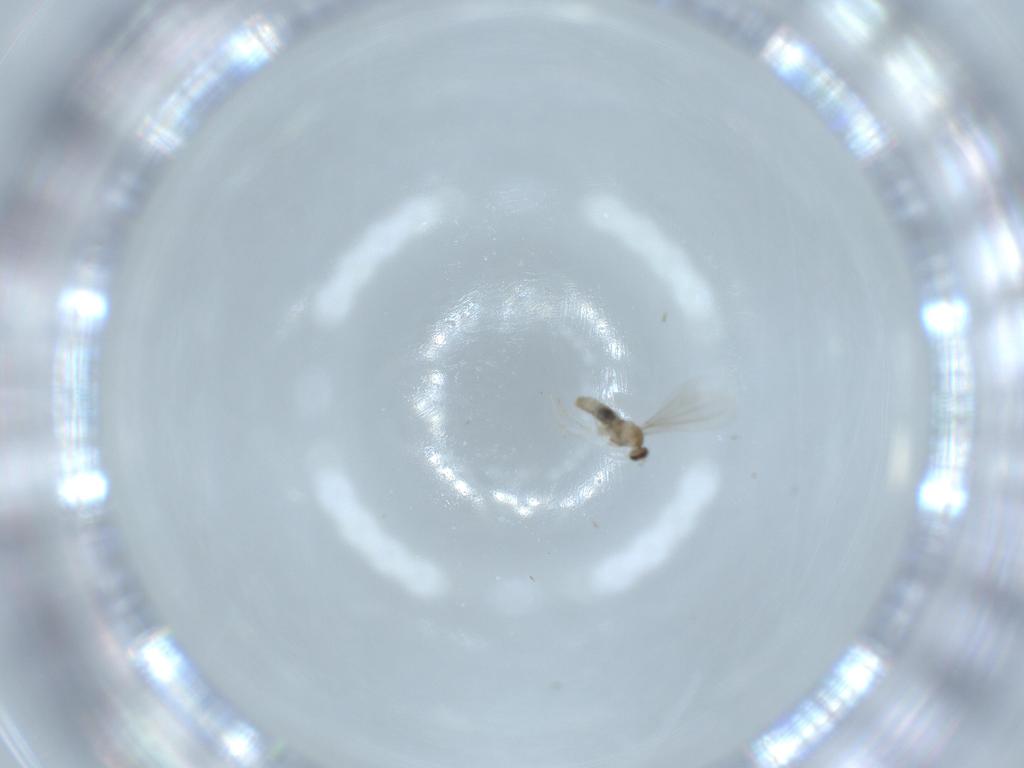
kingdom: Animalia
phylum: Arthropoda
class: Insecta
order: Diptera
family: Cecidomyiidae
